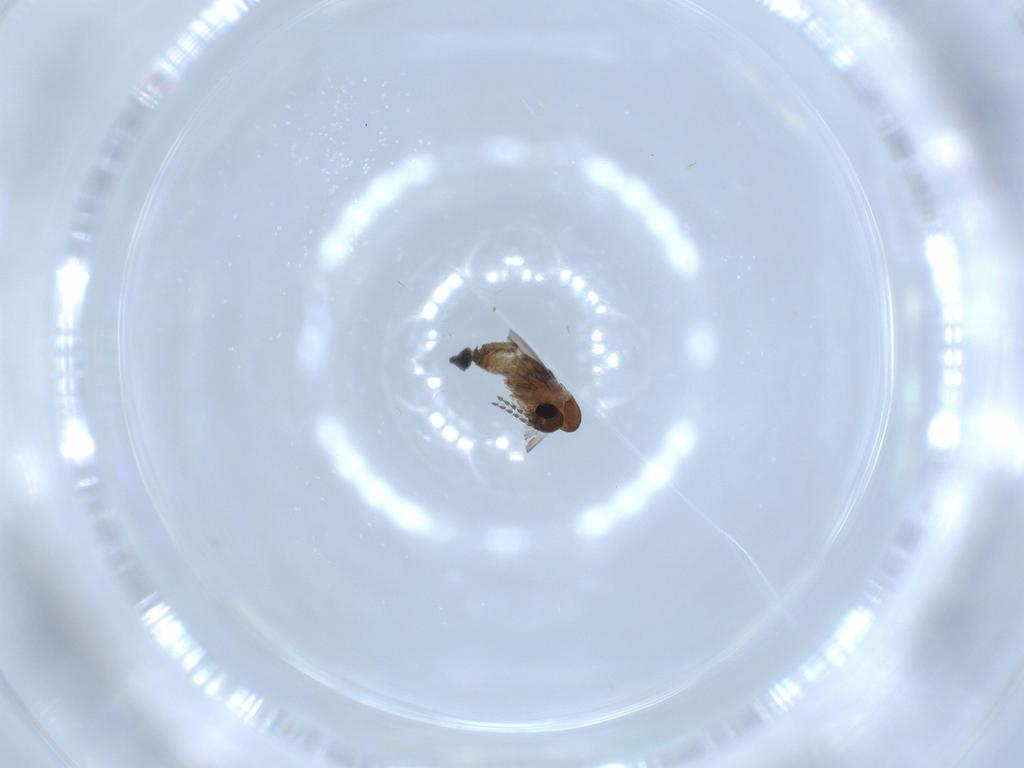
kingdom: Animalia
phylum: Arthropoda
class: Insecta
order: Diptera
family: Psychodidae
